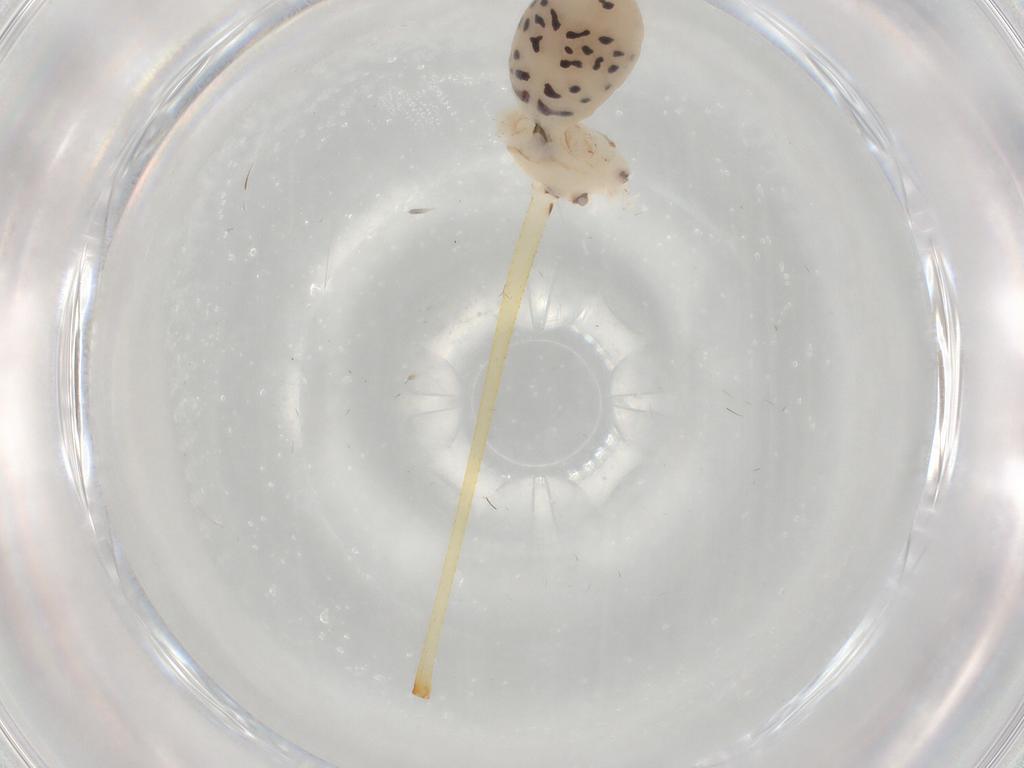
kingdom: Animalia
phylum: Arthropoda
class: Arachnida
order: Araneae
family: Pholcidae
